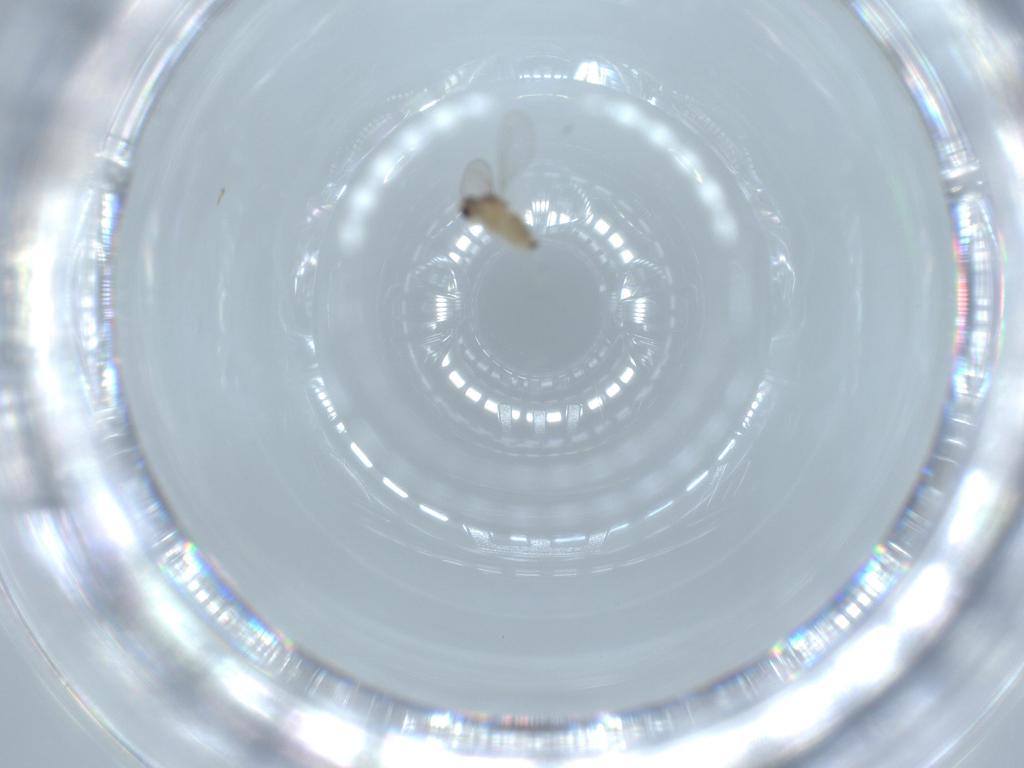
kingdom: Animalia
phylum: Arthropoda
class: Insecta
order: Diptera
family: Cecidomyiidae
